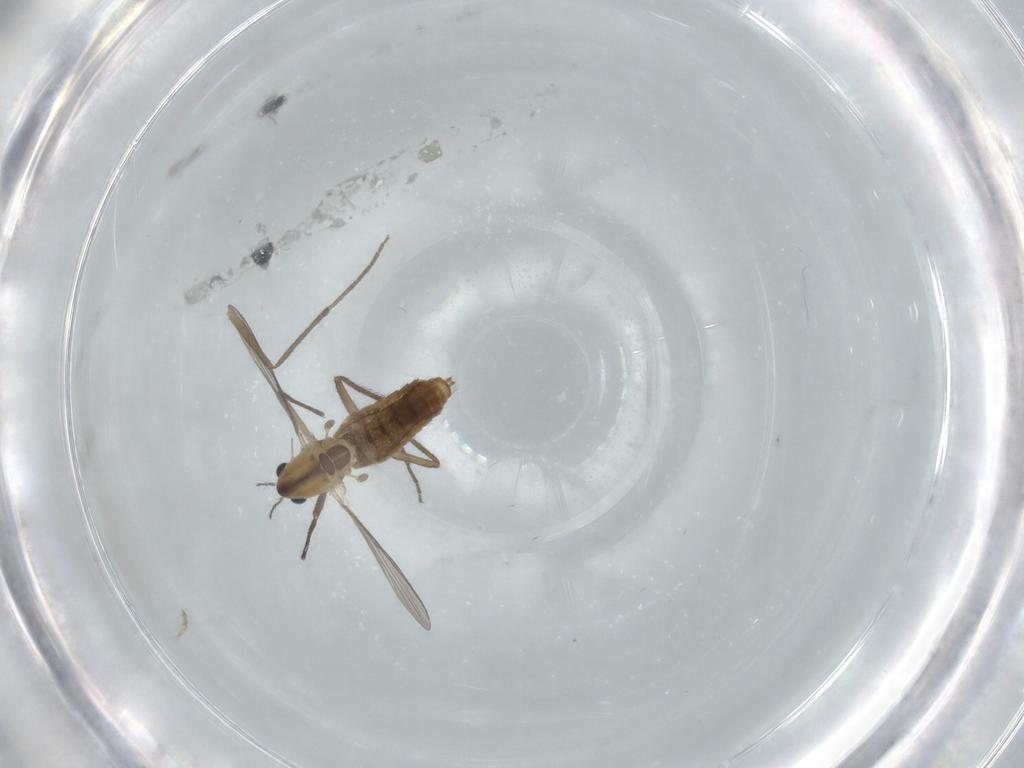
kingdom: Animalia
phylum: Arthropoda
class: Insecta
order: Diptera
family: Chironomidae
